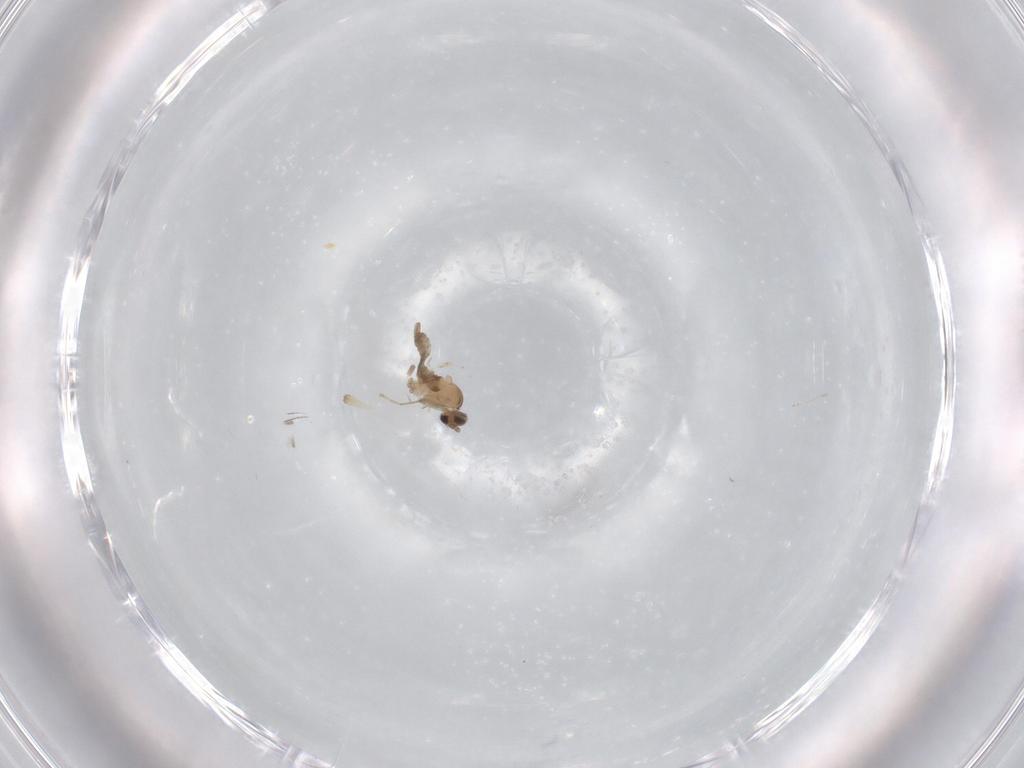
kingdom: Animalia
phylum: Arthropoda
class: Insecta
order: Diptera
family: Cecidomyiidae
